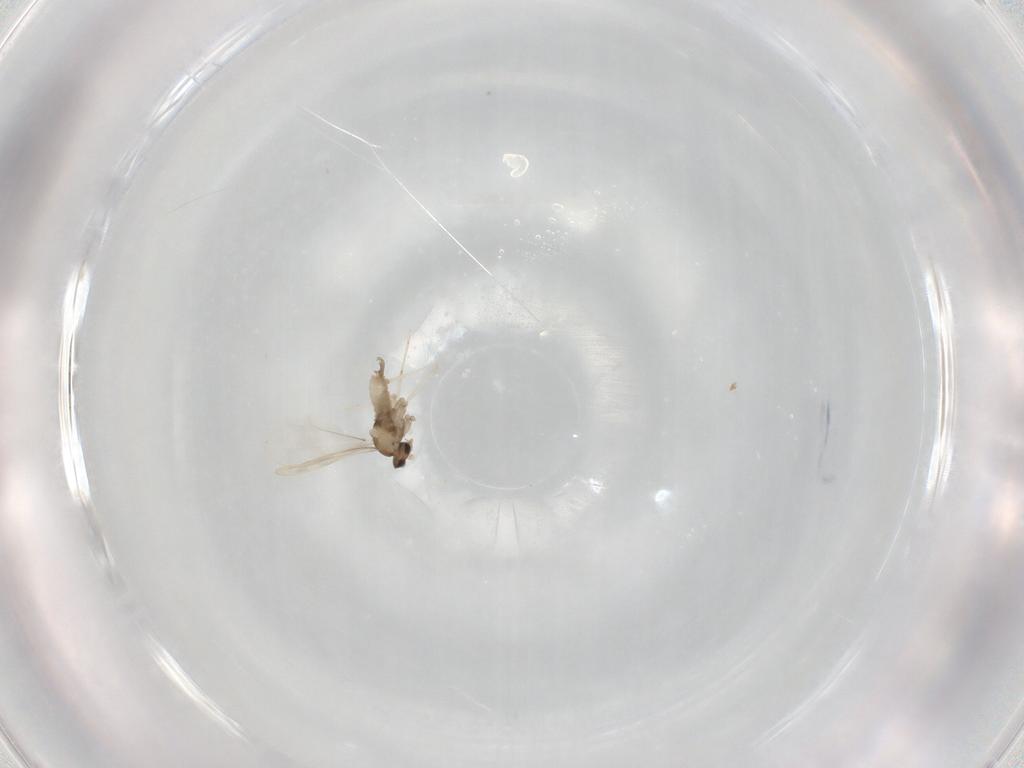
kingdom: Animalia
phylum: Arthropoda
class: Insecta
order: Diptera
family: Cecidomyiidae
